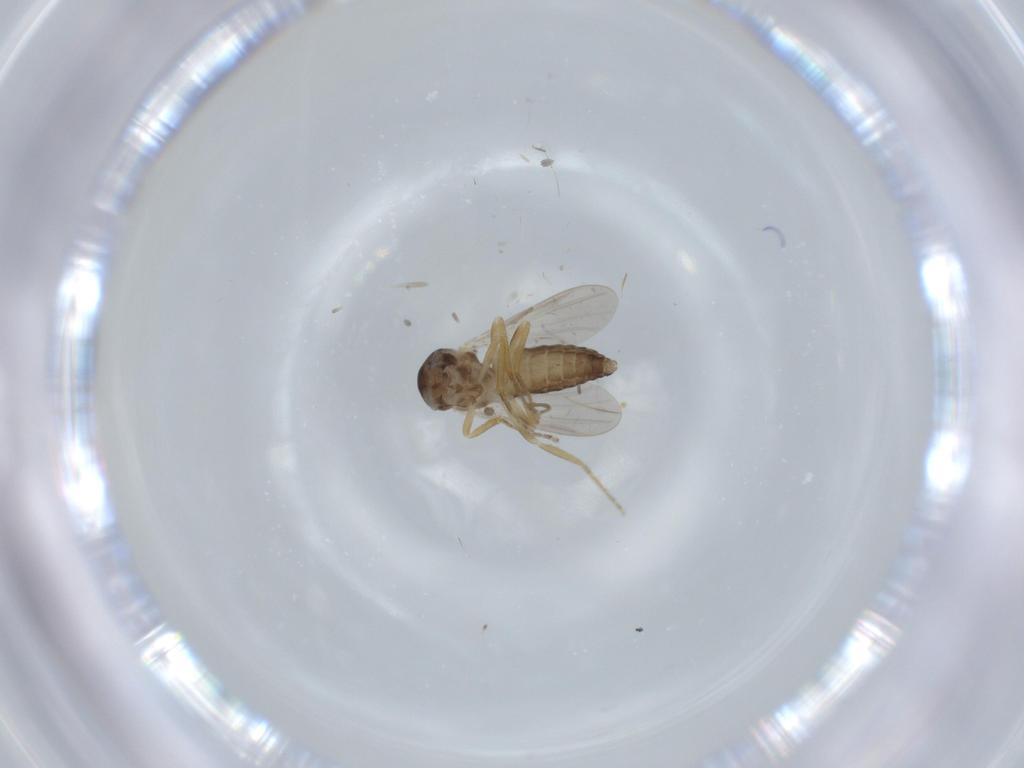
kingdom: Animalia
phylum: Arthropoda
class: Insecta
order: Diptera
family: Ceratopogonidae
